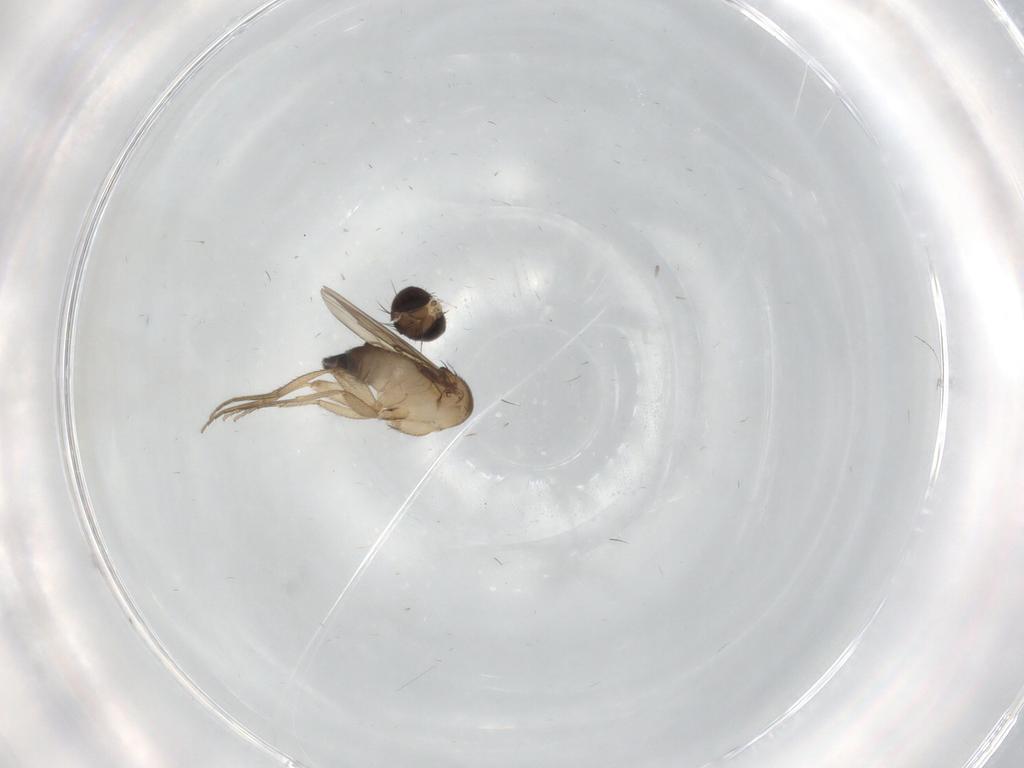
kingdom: Animalia
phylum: Arthropoda
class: Insecta
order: Diptera
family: Phoridae
